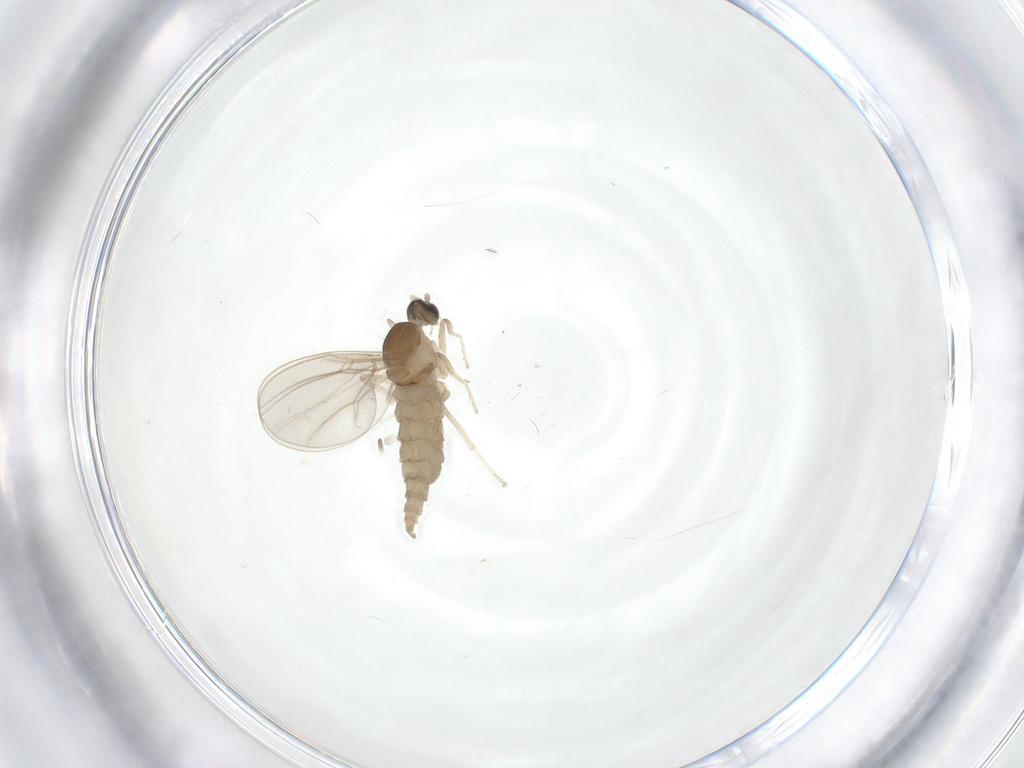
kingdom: Animalia
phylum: Arthropoda
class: Insecta
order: Diptera
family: Cecidomyiidae
